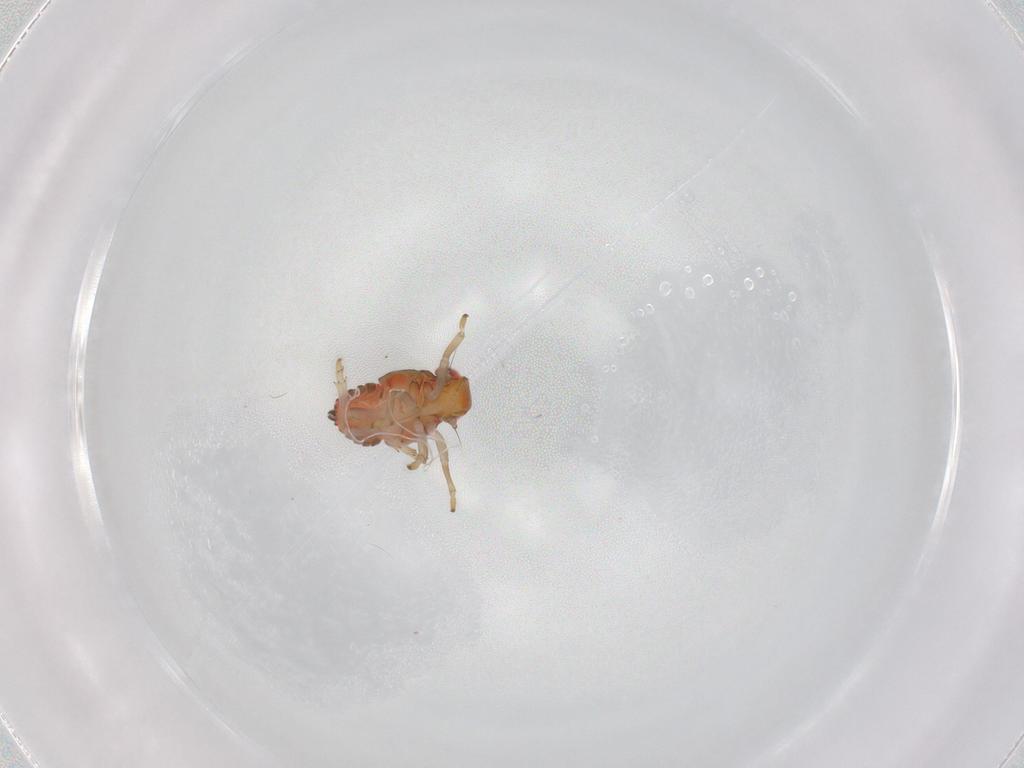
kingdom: Animalia
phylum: Arthropoda
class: Insecta
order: Hemiptera
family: Issidae
